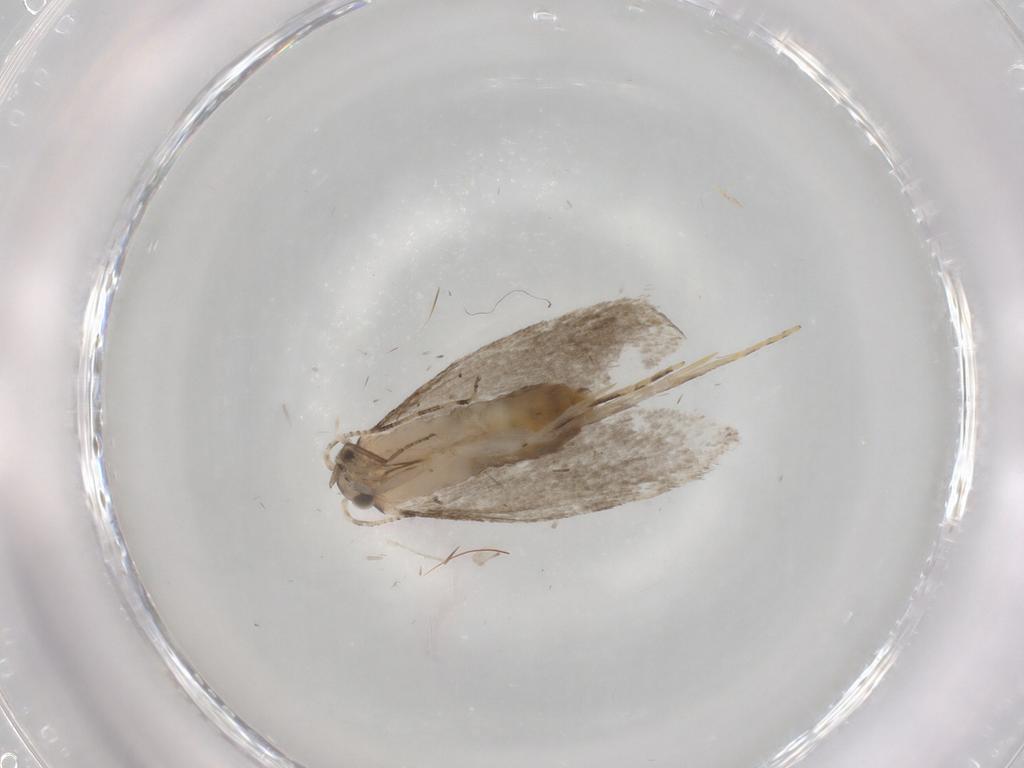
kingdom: Animalia
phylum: Arthropoda
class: Insecta
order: Lepidoptera
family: Tineidae
